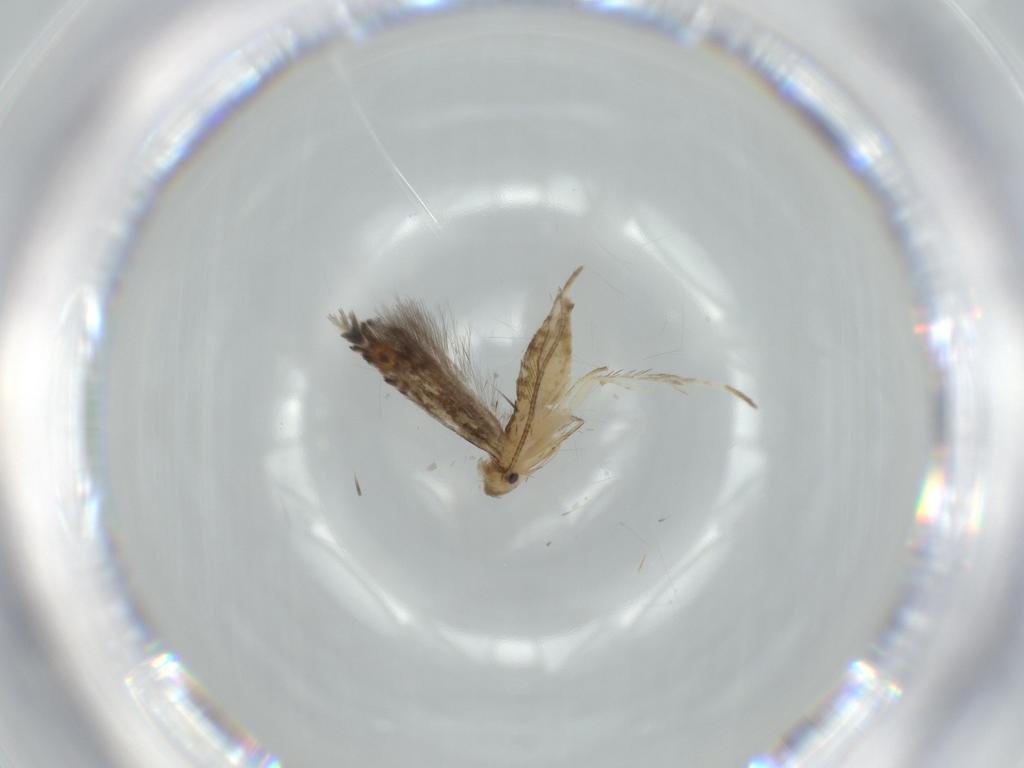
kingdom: Animalia
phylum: Arthropoda
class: Insecta
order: Lepidoptera
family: Gracillariidae
